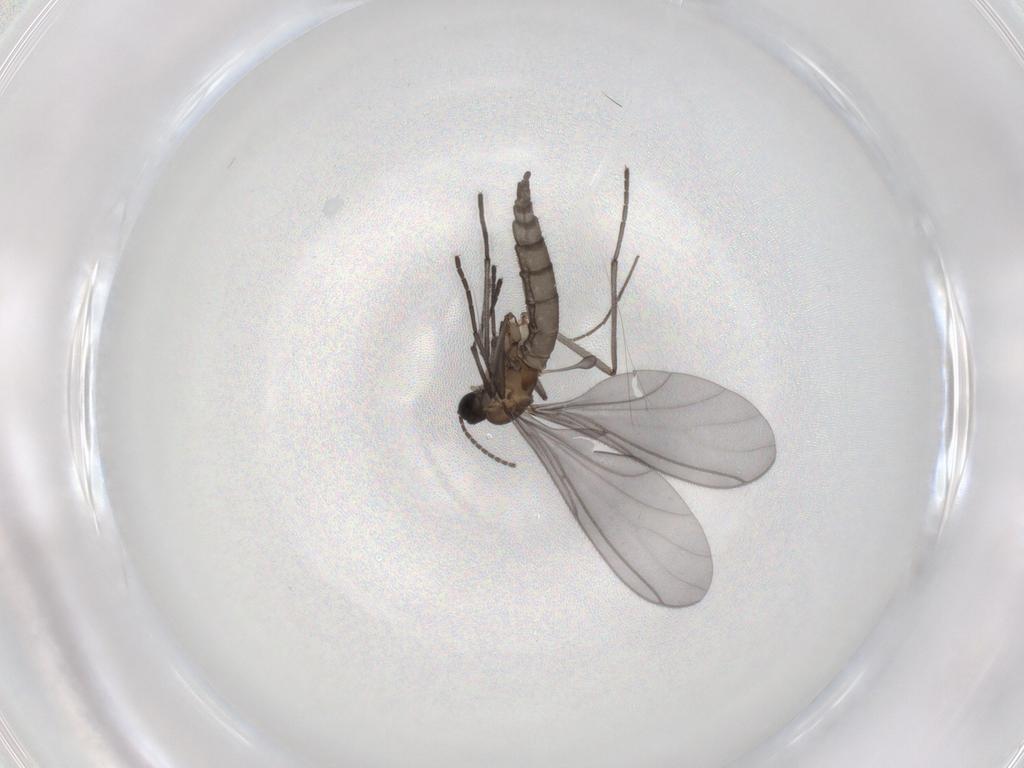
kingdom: Animalia
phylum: Arthropoda
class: Insecta
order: Diptera
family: Sciaridae
